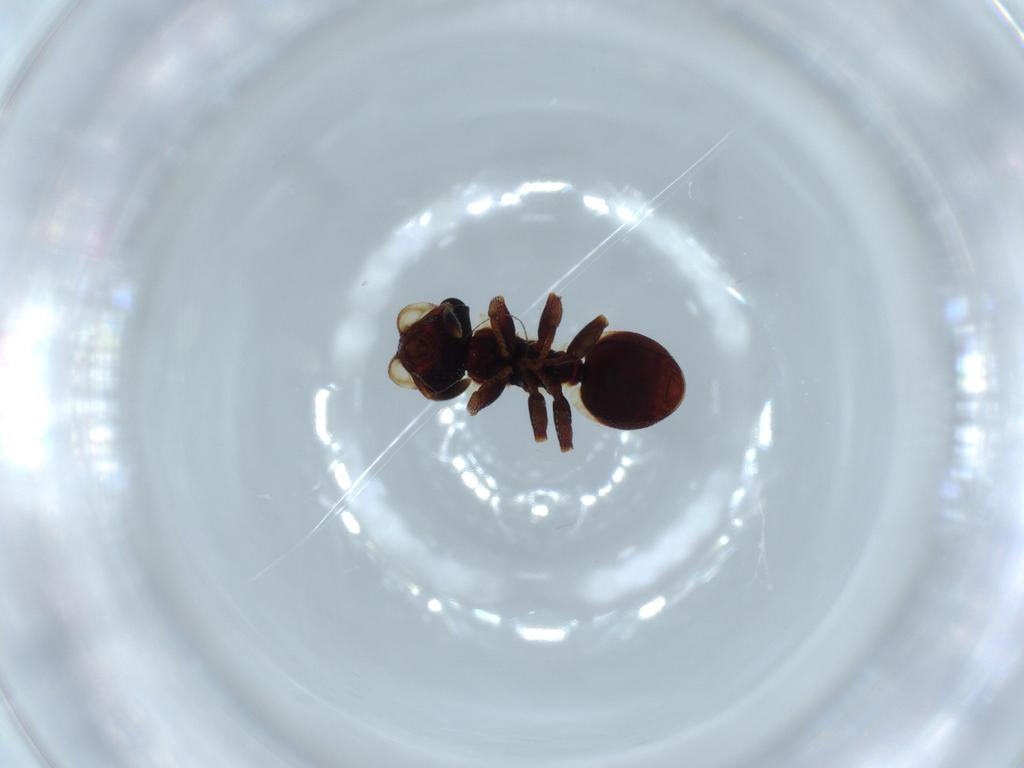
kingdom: Animalia
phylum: Arthropoda
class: Insecta
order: Hymenoptera
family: Formicidae
